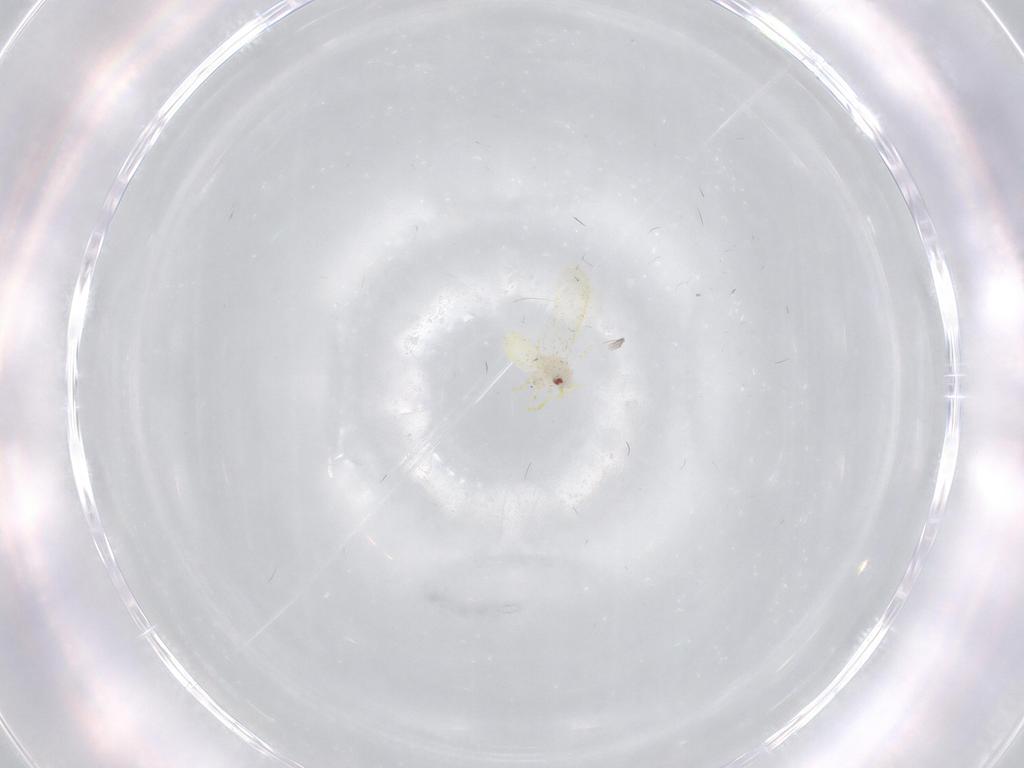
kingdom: Animalia
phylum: Arthropoda
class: Insecta
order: Hemiptera
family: Aleyrodidae
